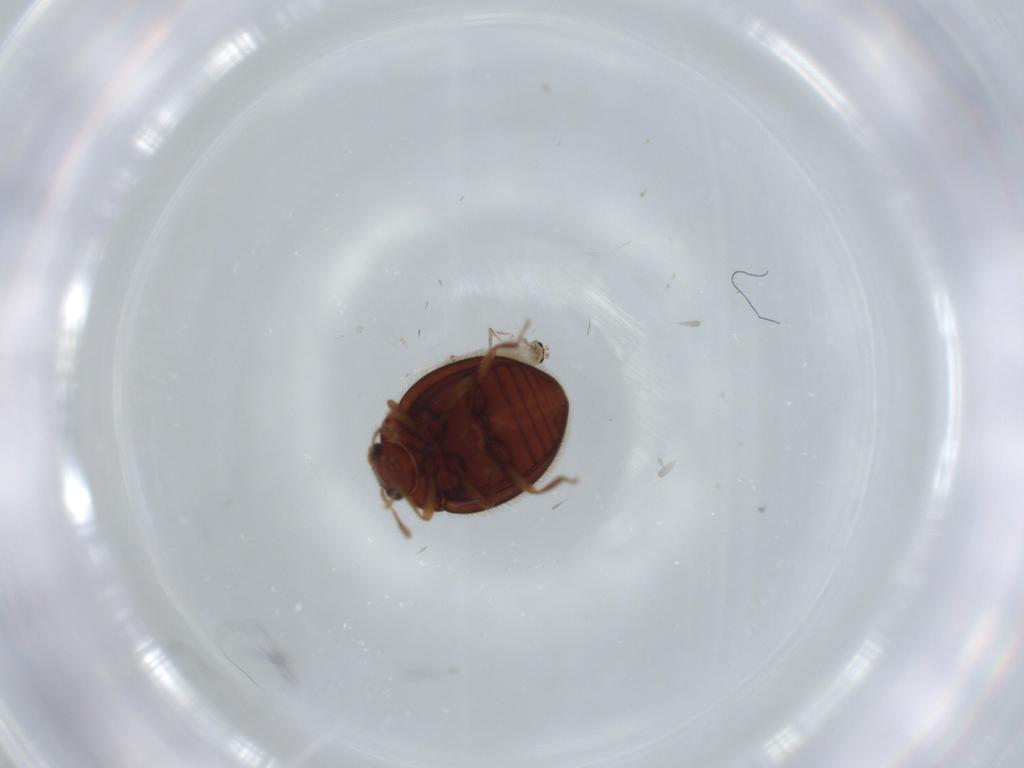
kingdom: Animalia
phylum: Arthropoda
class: Insecta
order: Coleoptera
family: Anamorphidae
